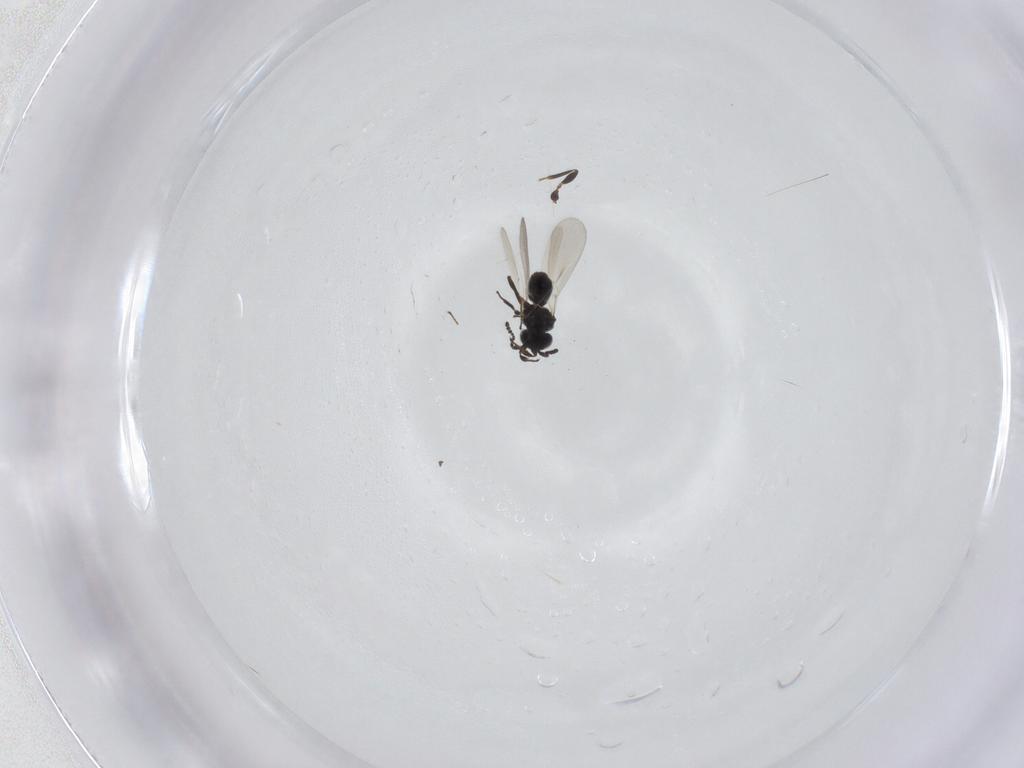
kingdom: Animalia
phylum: Arthropoda
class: Insecta
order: Hymenoptera
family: Platygastridae
